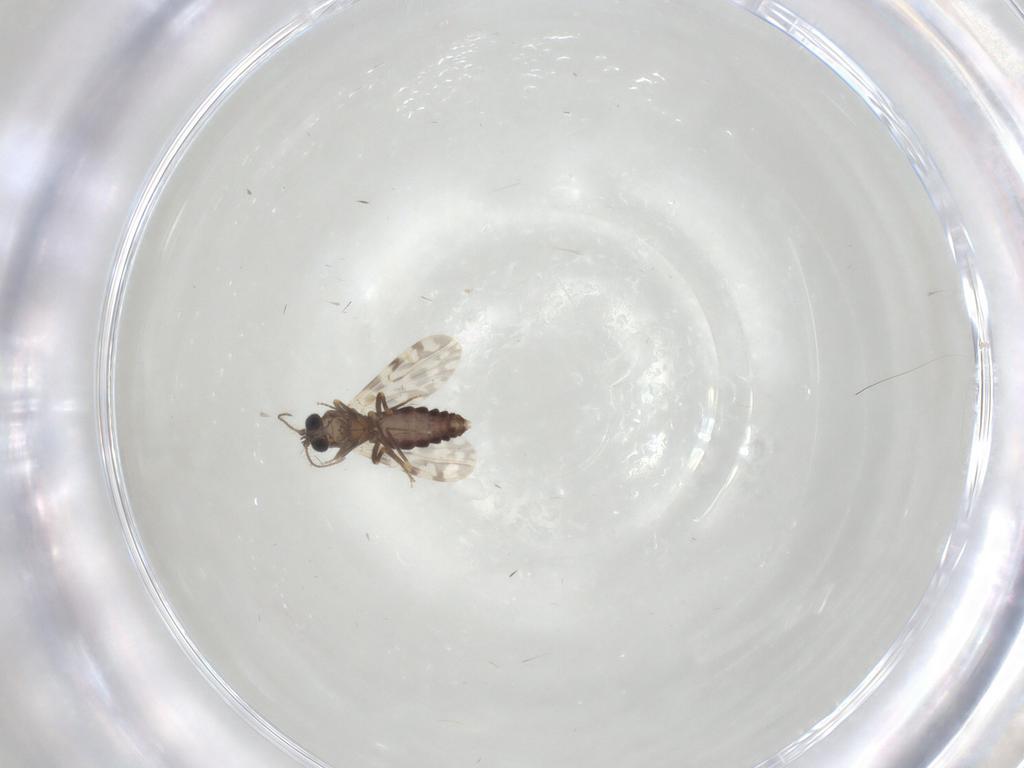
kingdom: Animalia
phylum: Arthropoda
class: Insecta
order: Diptera
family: Ceratopogonidae
